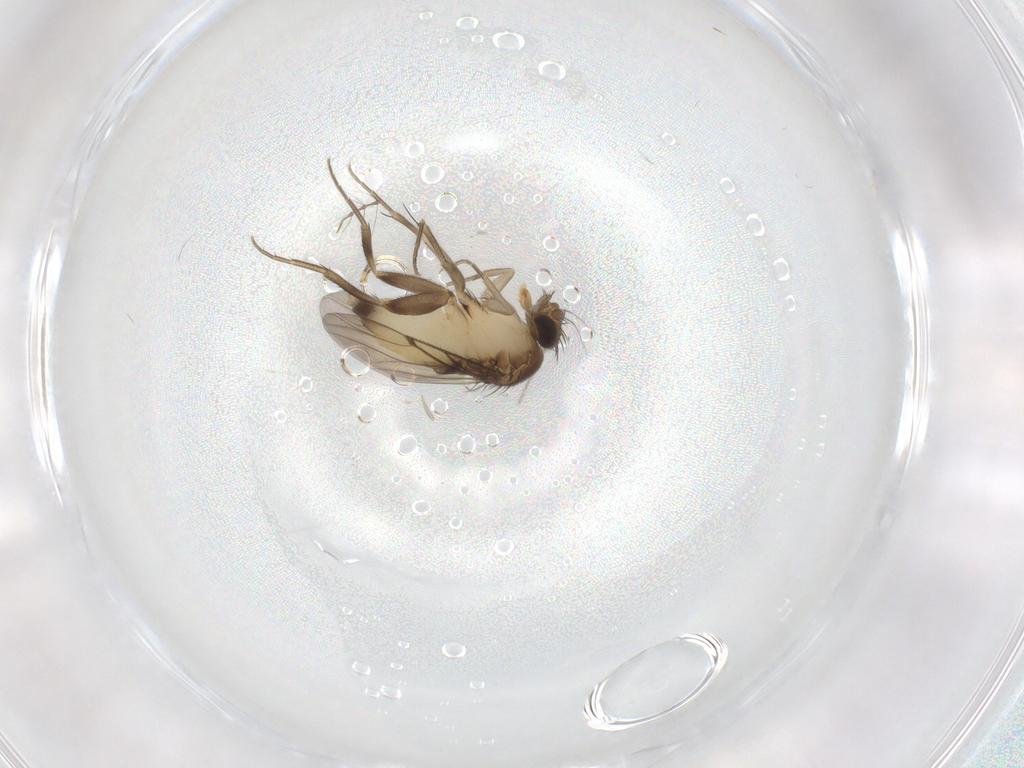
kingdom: Animalia
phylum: Arthropoda
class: Insecta
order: Diptera
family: Phoridae
